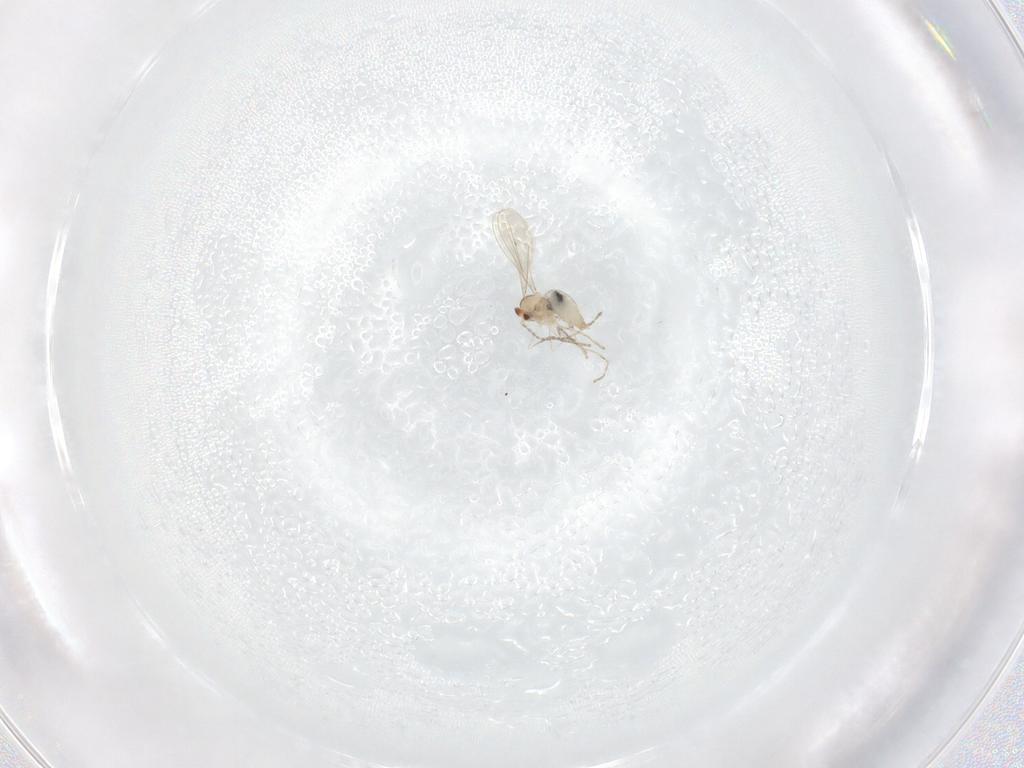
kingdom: Animalia
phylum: Arthropoda
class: Insecta
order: Diptera
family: Cecidomyiidae
